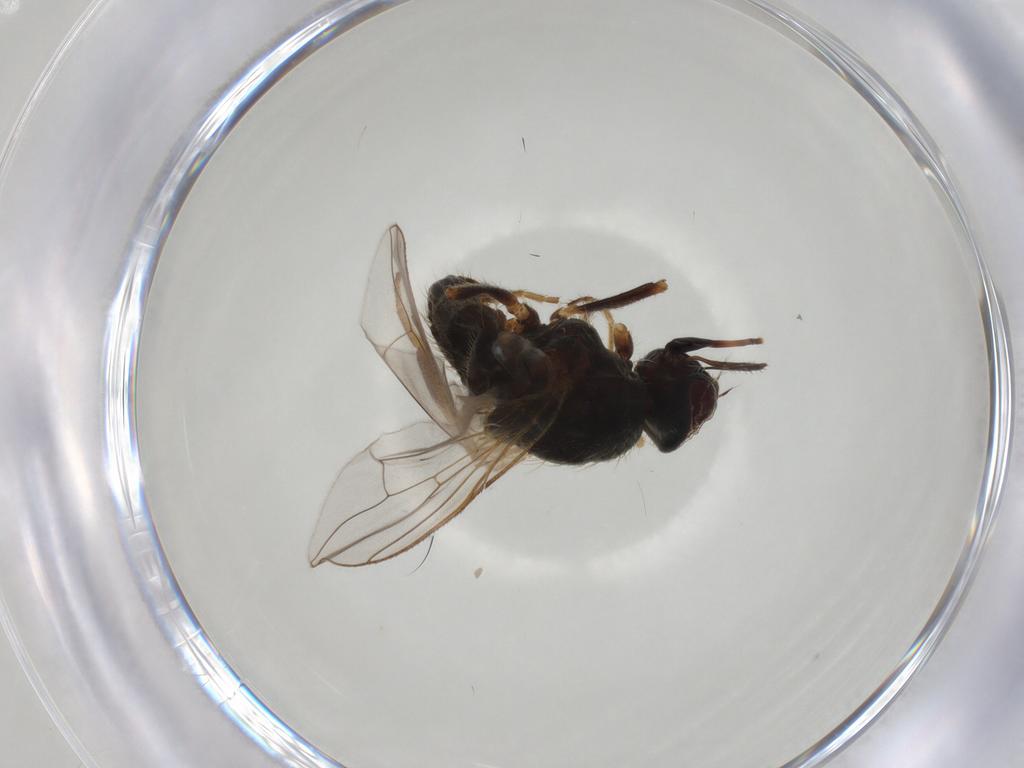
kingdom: Animalia
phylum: Arthropoda
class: Insecta
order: Diptera
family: Muscidae
